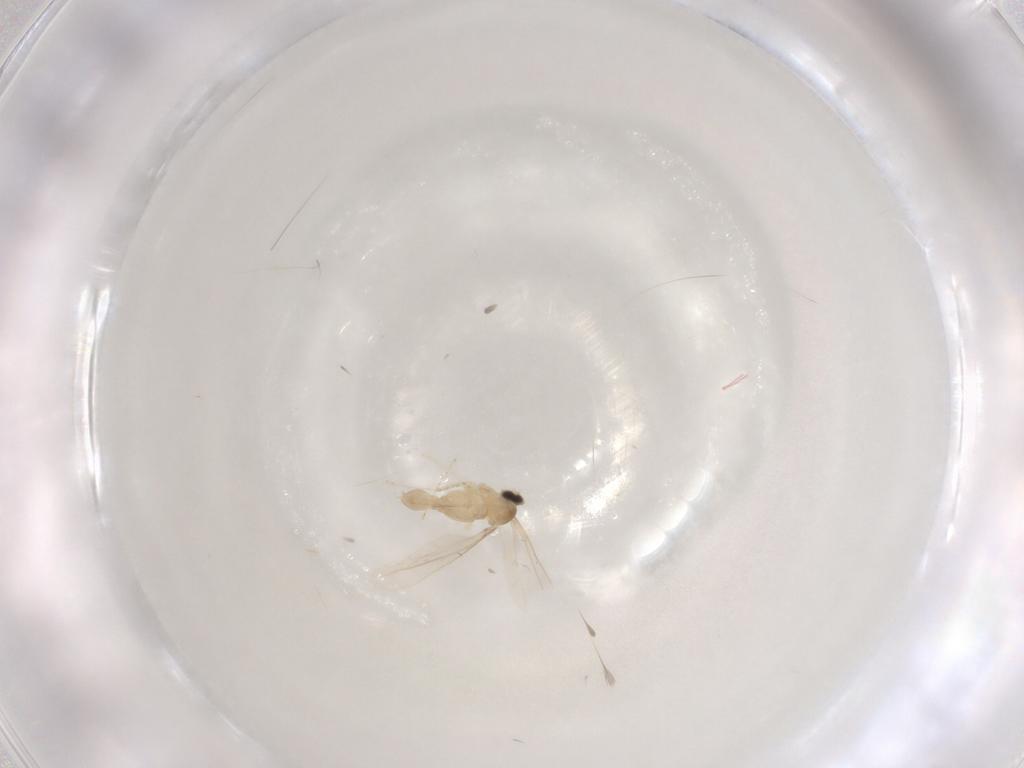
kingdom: Animalia
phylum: Arthropoda
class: Insecta
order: Diptera
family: Cecidomyiidae
